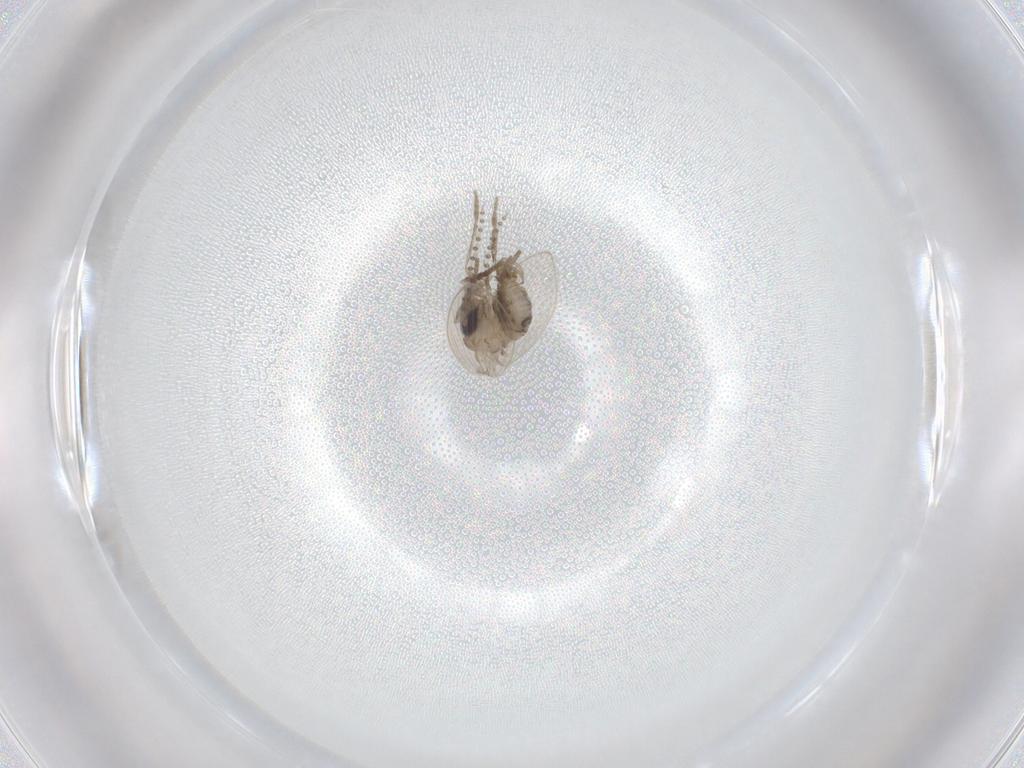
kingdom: Animalia
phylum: Arthropoda
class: Insecta
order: Diptera
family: Psychodidae
